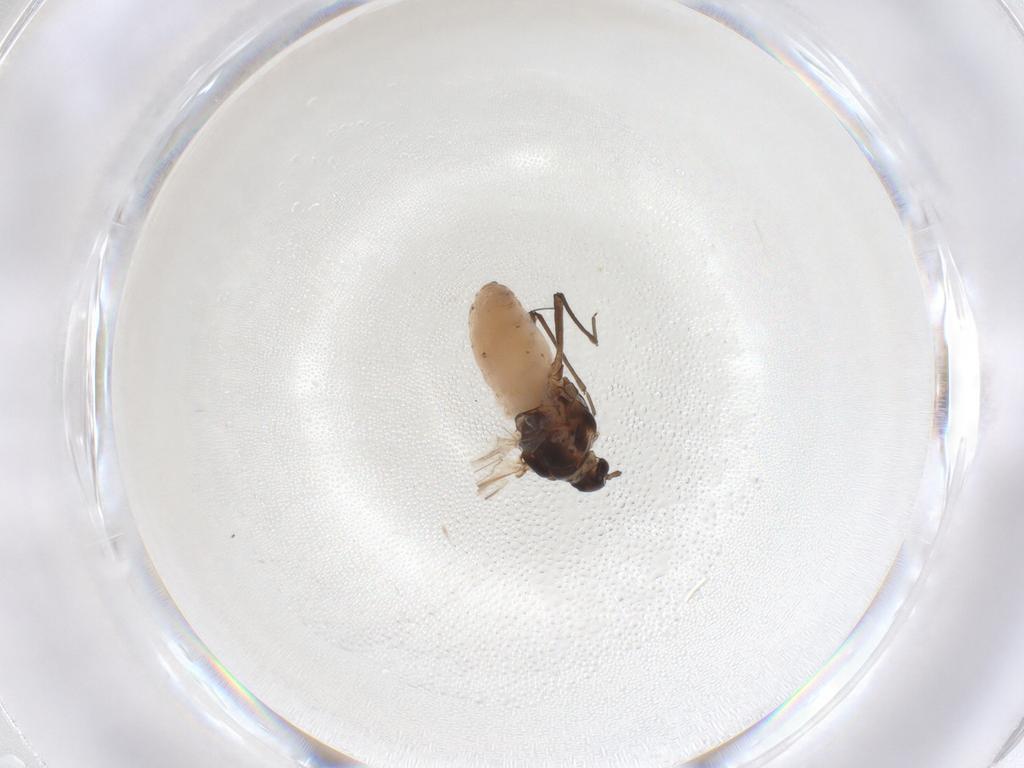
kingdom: Animalia
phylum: Arthropoda
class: Insecta
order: Hemiptera
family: Aphididae
